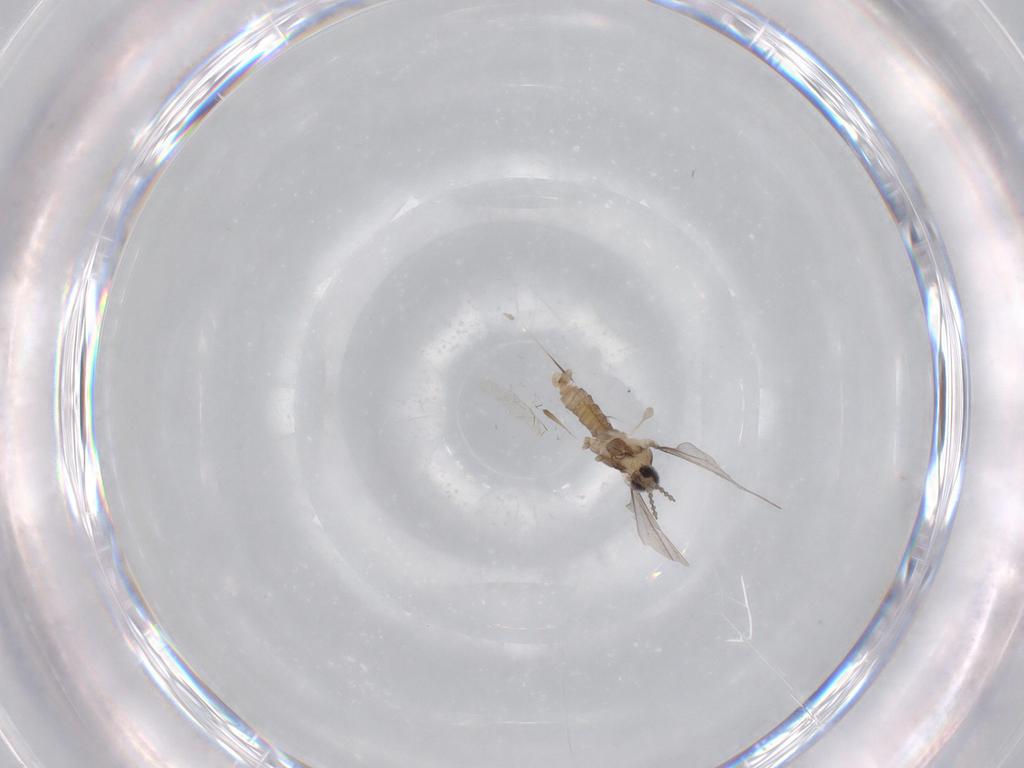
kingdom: Animalia
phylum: Arthropoda
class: Insecta
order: Diptera
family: Cecidomyiidae
